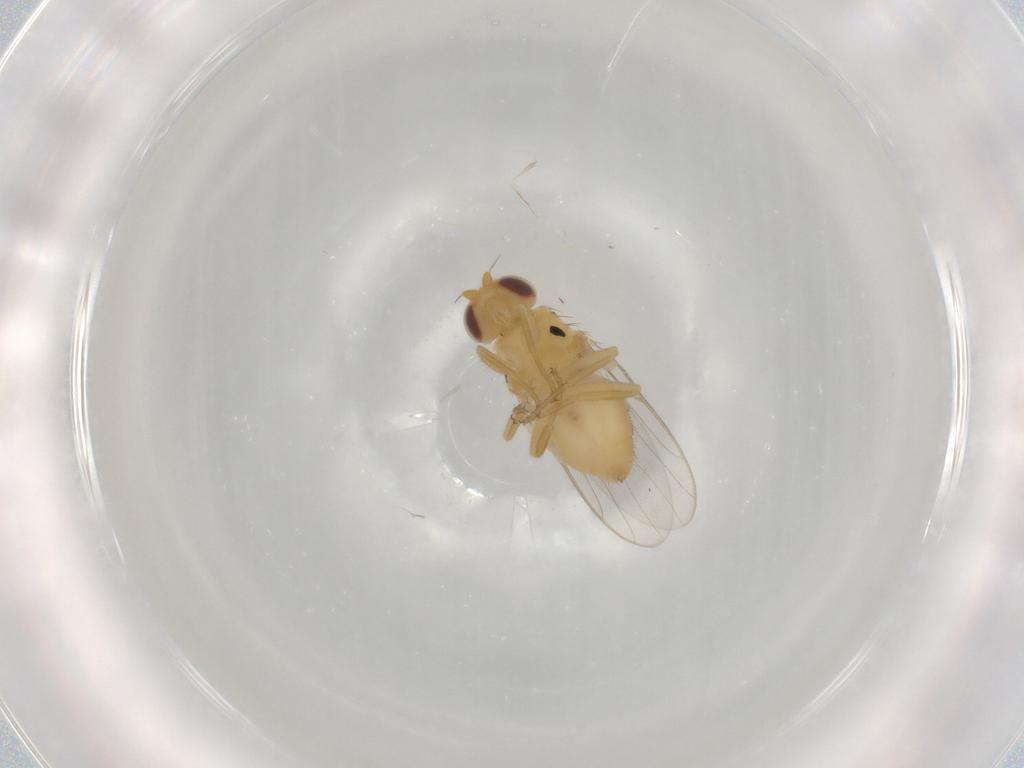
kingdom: Animalia
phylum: Arthropoda
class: Insecta
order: Diptera
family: Chloropidae
